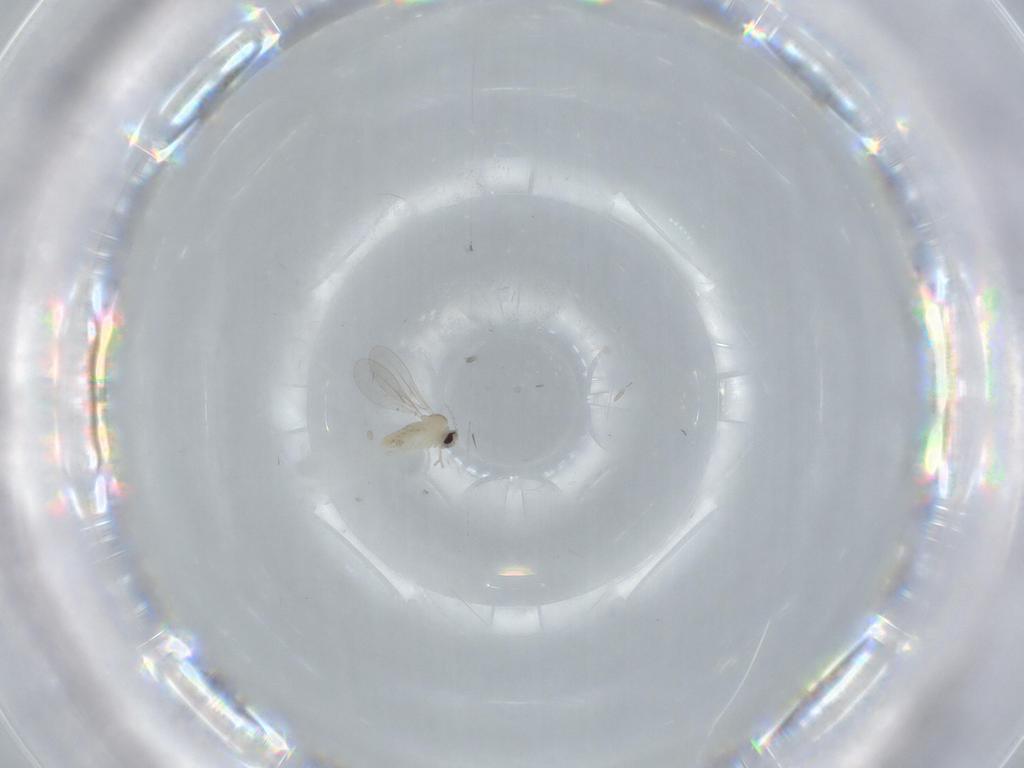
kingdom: Animalia
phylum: Arthropoda
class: Insecta
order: Diptera
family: Cecidomyiidae
